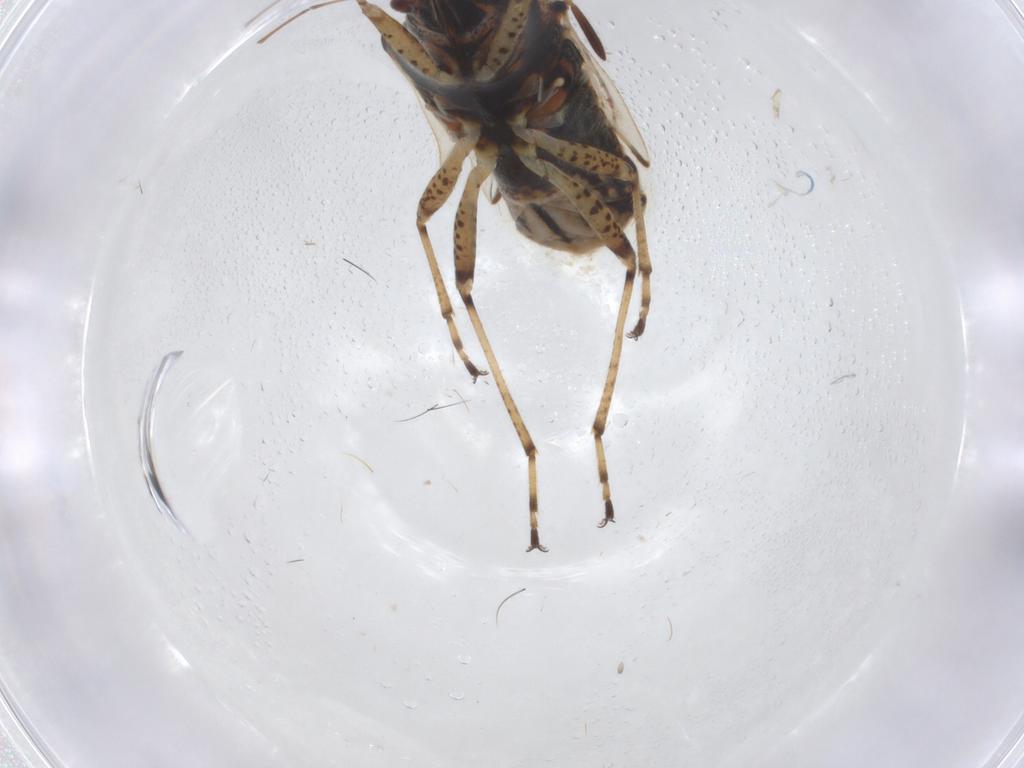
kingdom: Animalia
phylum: Arthropoda
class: Insecta
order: Hemiptera
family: Lygaeidae
